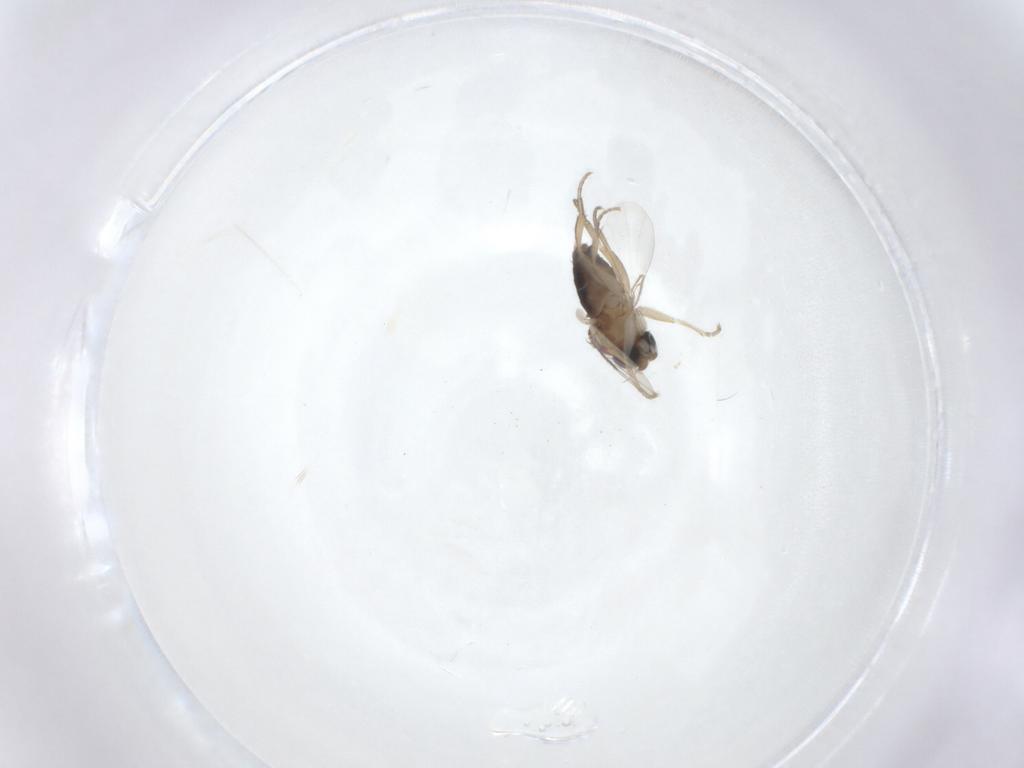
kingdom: Animalia
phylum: Arthropoda
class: Insecta
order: Diptera
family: Phoridae
